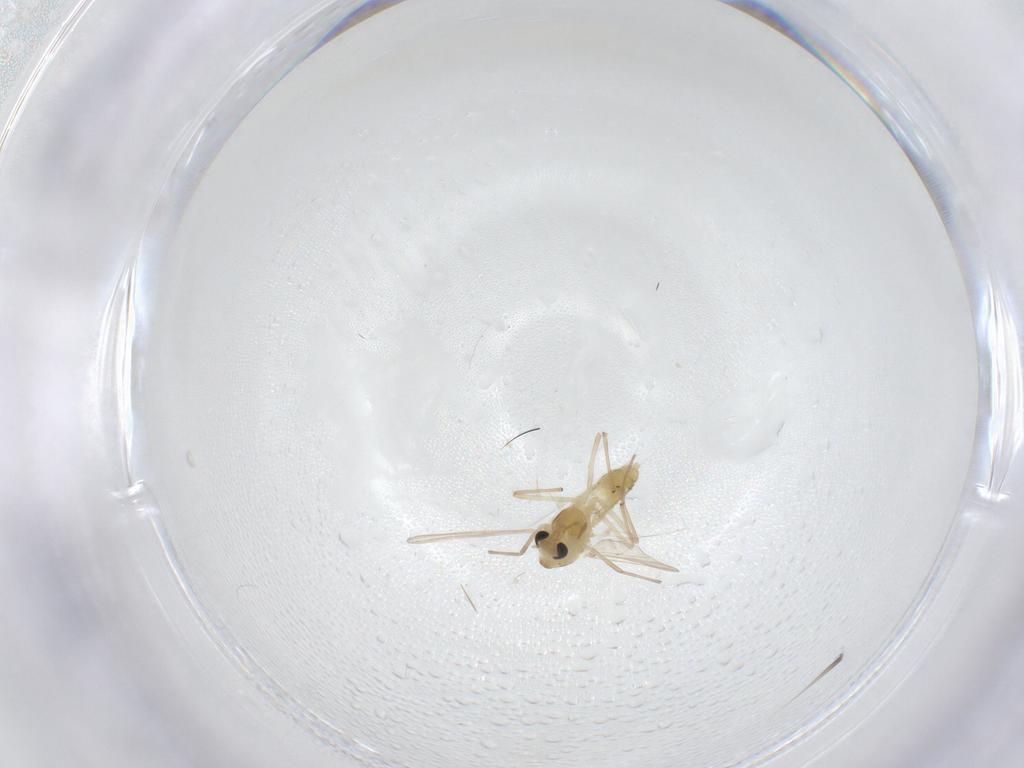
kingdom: Animalia
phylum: Arthropoda
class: Insecta
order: Diptera
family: Chironomidae
